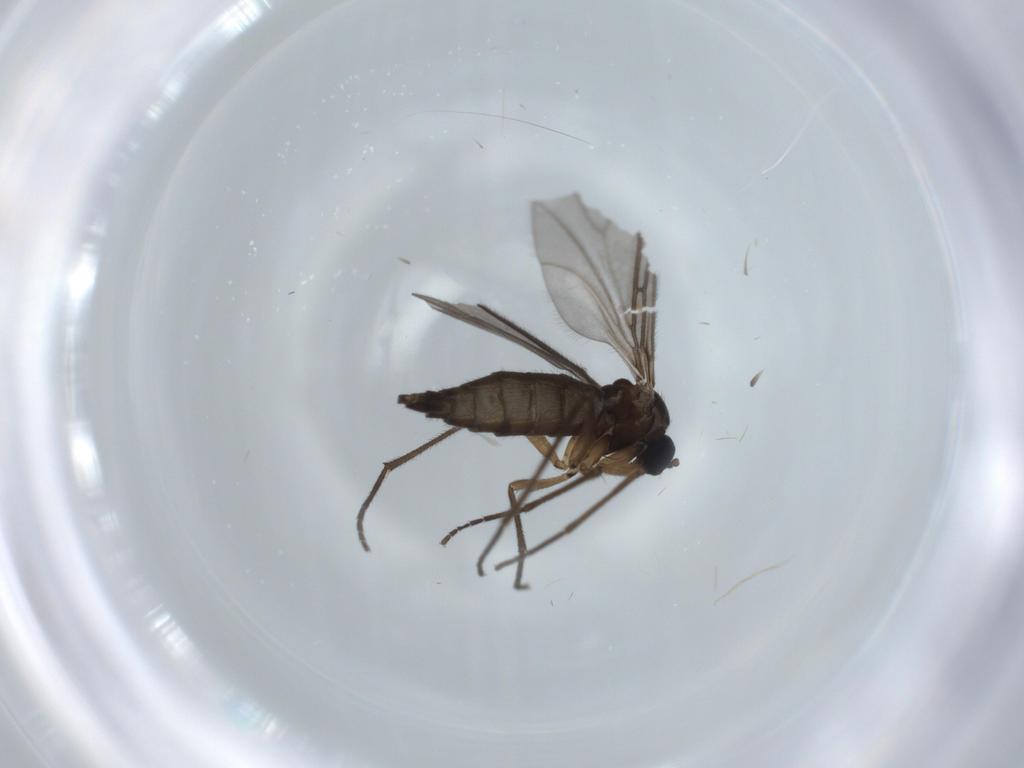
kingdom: Animalia
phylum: Arthropoda
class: Insecta
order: Diptera
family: Sciaridae
